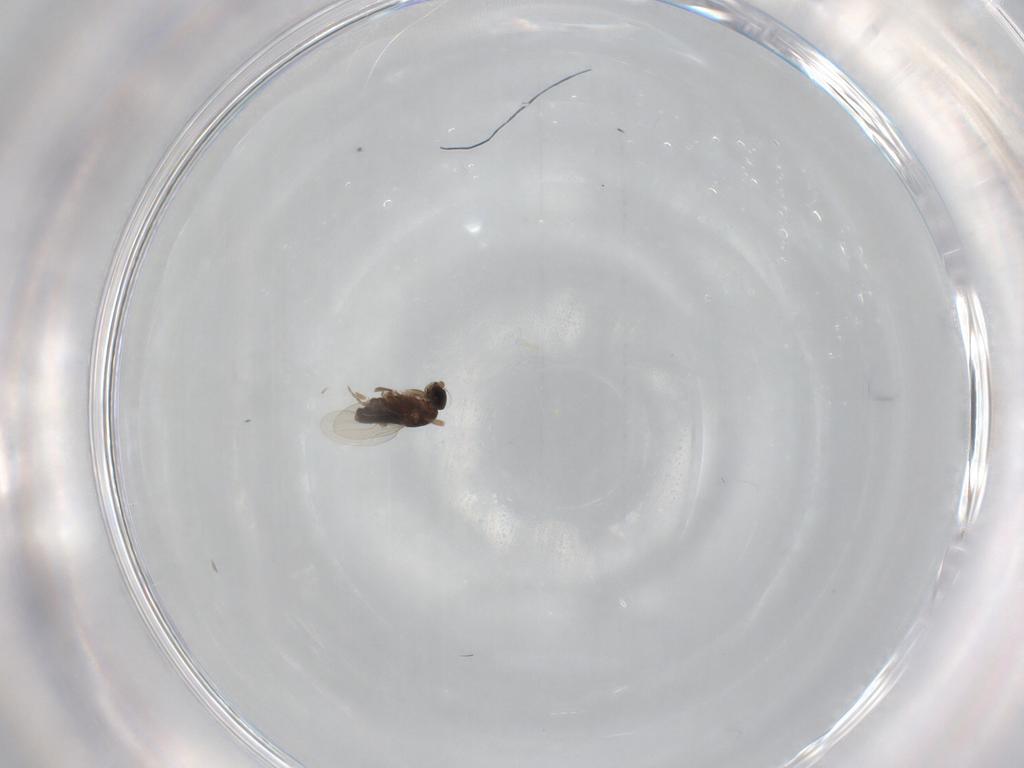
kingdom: Animalia
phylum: Arthropoda
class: Insecta
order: Diptera
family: Phoridae
